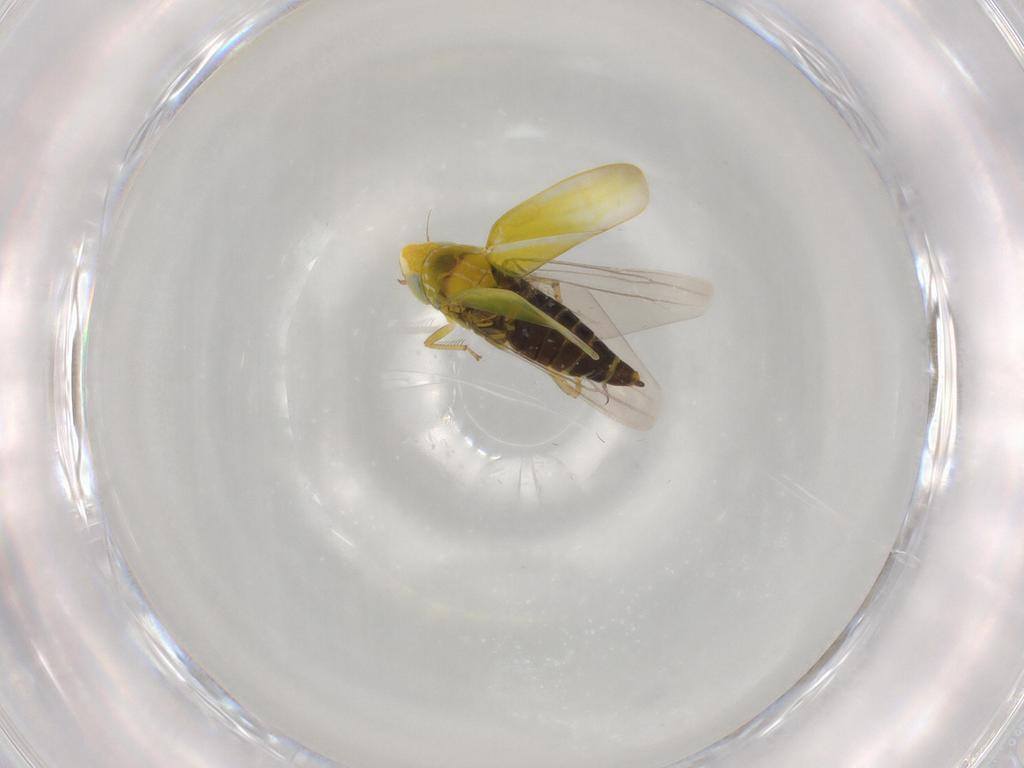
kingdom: Animalia
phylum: Arthropoda
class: Insecta
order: Hemiptera
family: Cicadellidae
